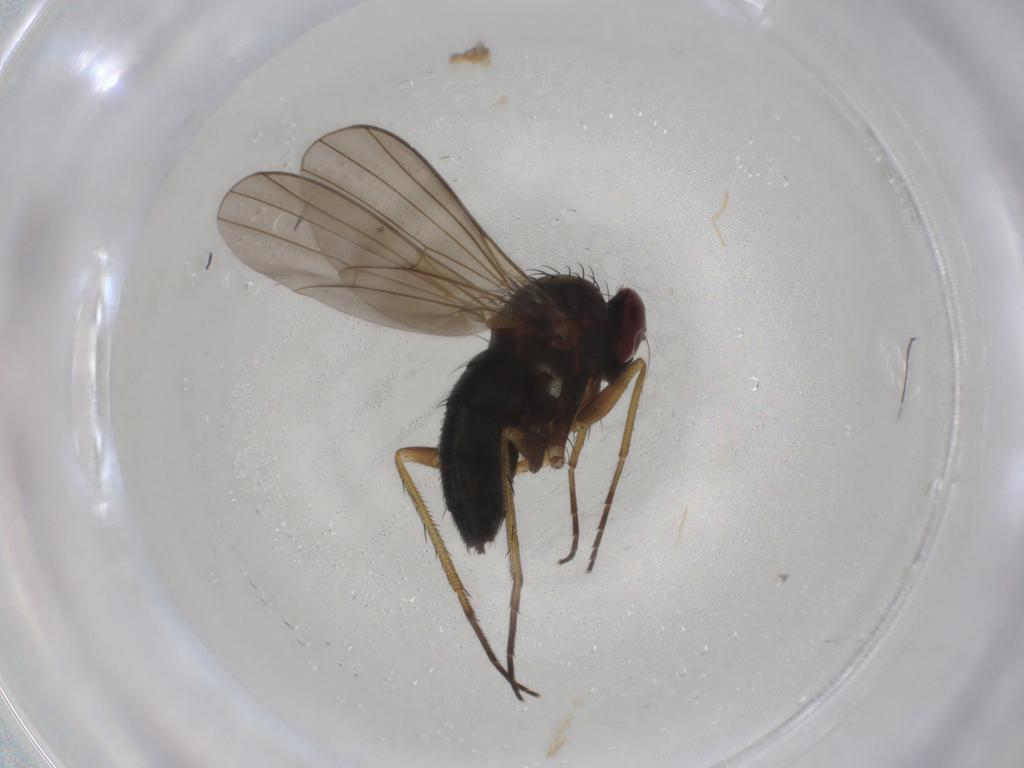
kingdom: Animalia
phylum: Arthropoda
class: Insecta
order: Diptera
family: Dolichopodidae
